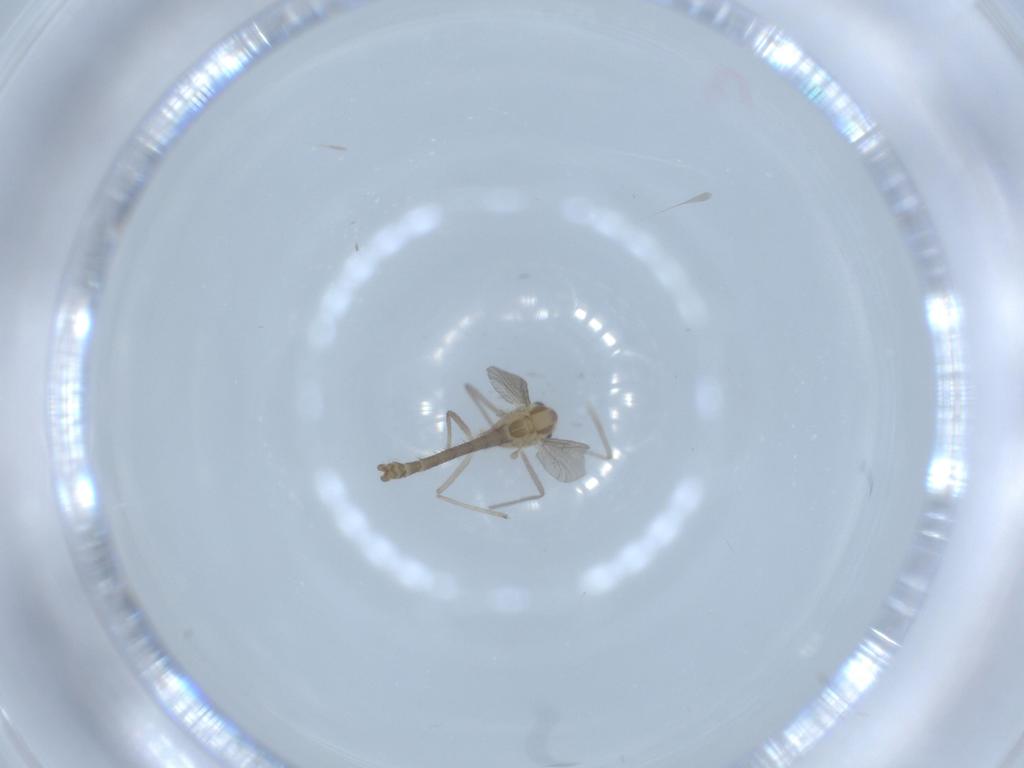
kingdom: Animalia
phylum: Arthropoda
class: Insecta
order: Diptera
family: Chironomidae
